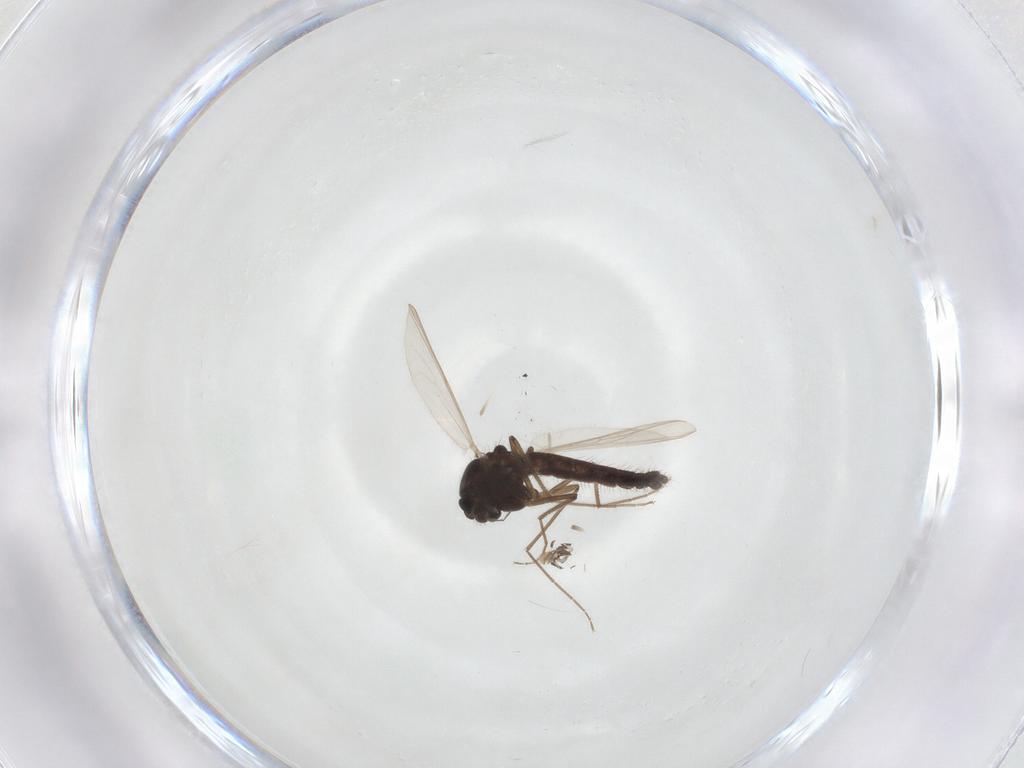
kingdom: Animalia
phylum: Arthropoda
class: Insecta
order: Diptera
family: Chironomidae
